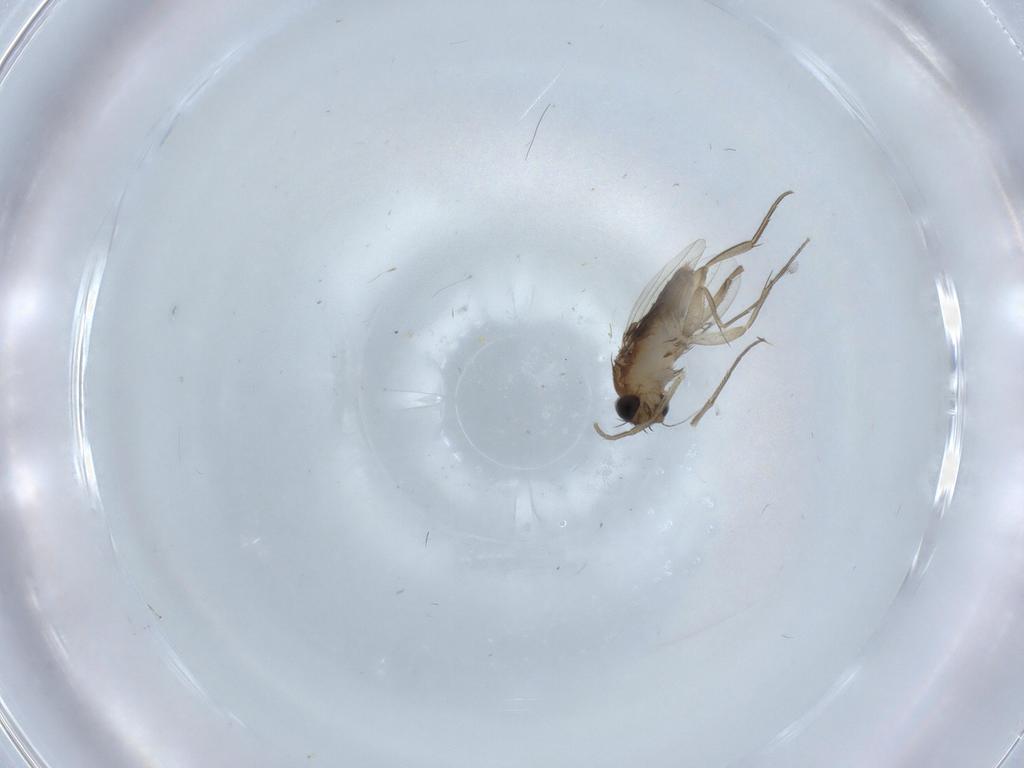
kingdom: Animalia
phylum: Arthropoda
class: Insecta
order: Diptera
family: Phoridae
